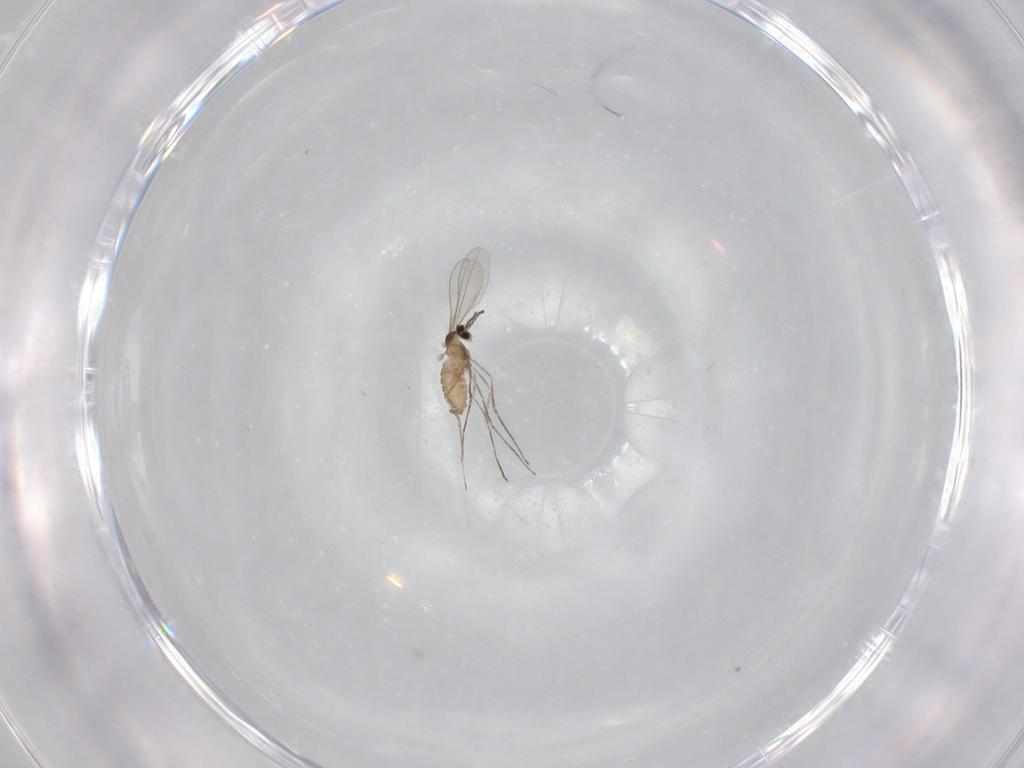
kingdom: Animalia
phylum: Arthropoda
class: Insecta
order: Diptera
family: Cecidomyiidae
